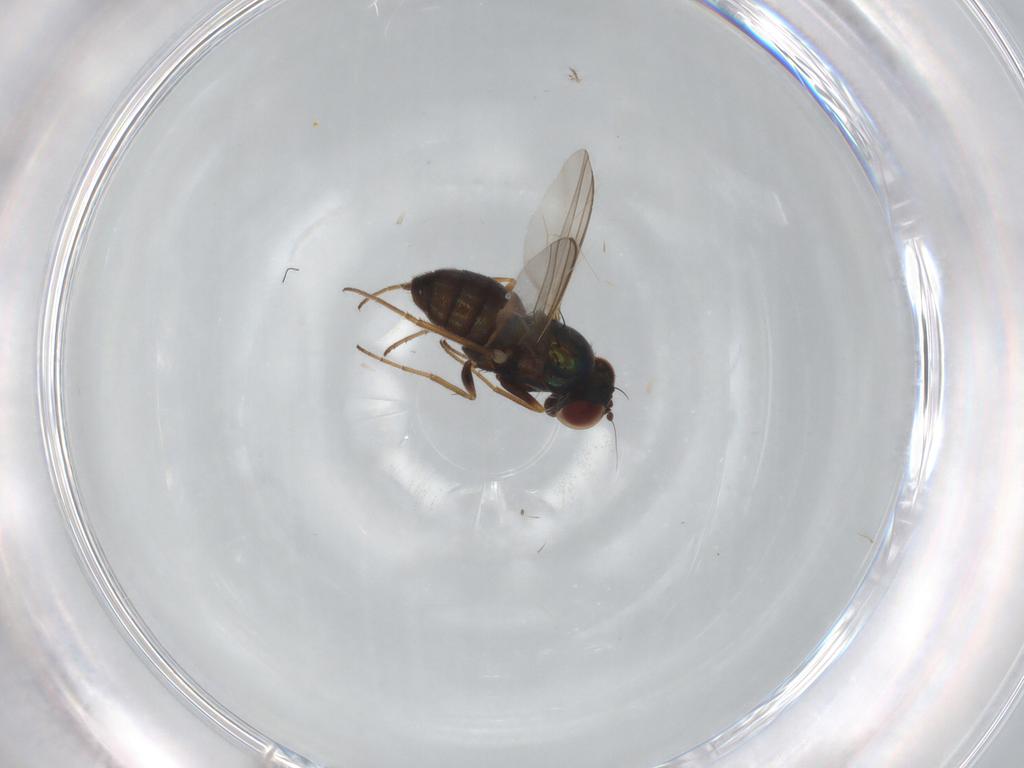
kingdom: Animalia
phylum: Arthropoda
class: Insecta
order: Diptera
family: Dolichopodidae
